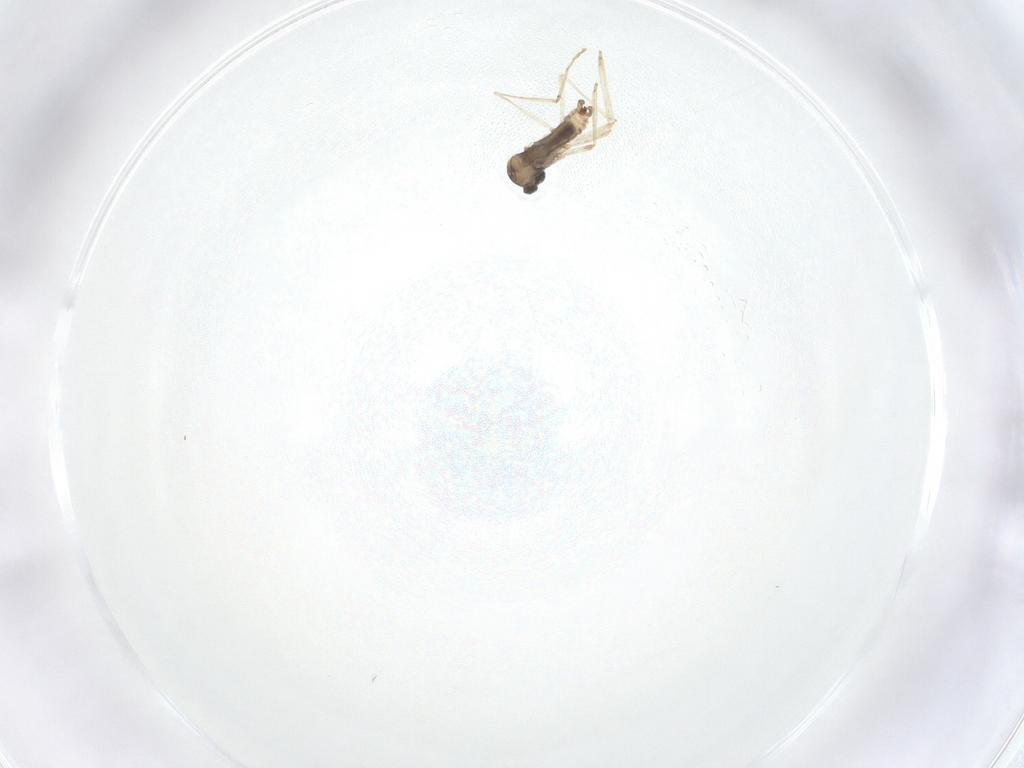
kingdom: Animalia
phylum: Arthropoda
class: Insecta
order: Diptera
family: Cecidomyiidae
